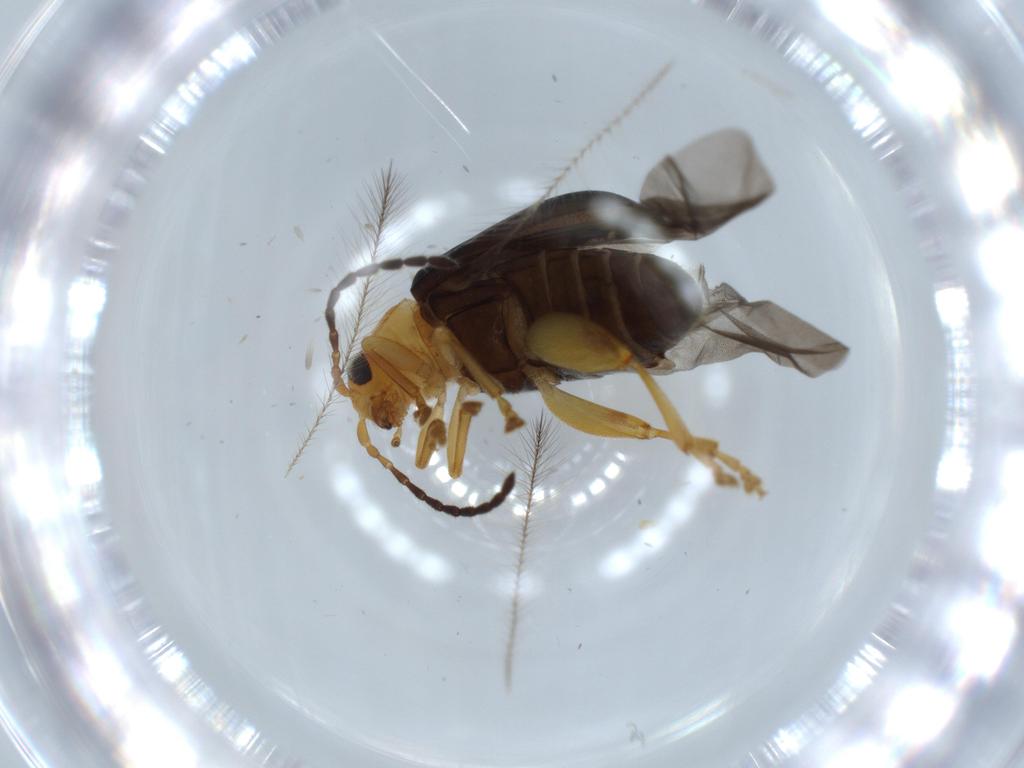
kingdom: Animalia
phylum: Arthropoda
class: Insecta
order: Coleoptera
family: Chrysomelidae
